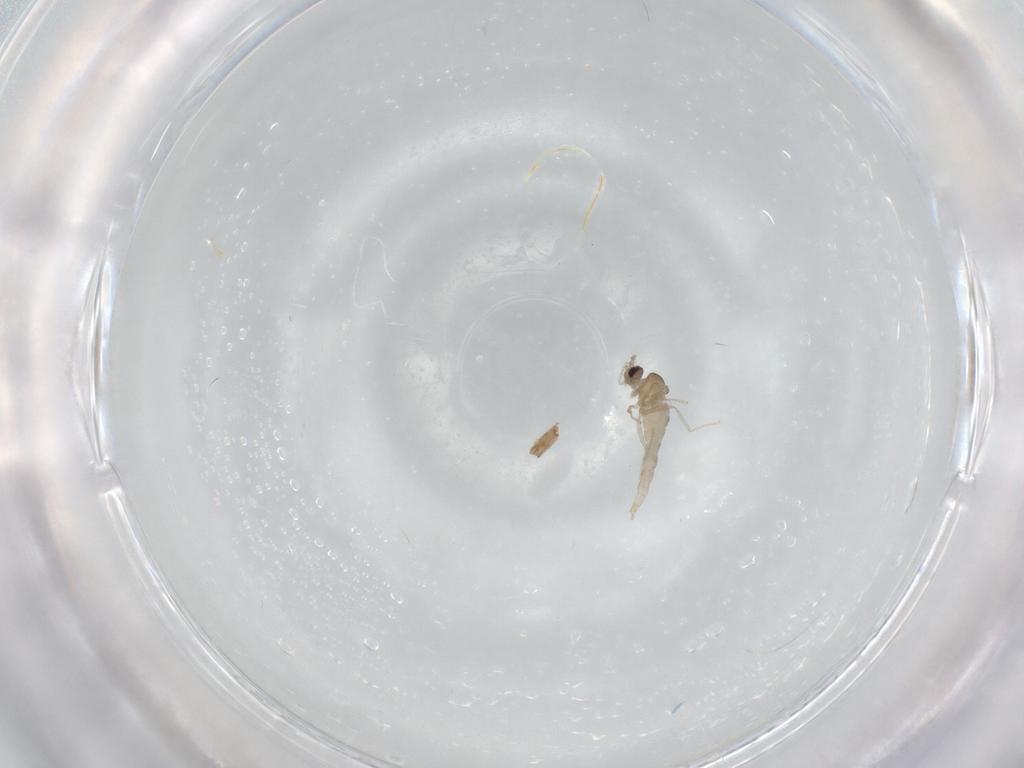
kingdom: Animalia
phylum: Arthropoda
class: Insecta
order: Diptera
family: Cecidomyiidae
